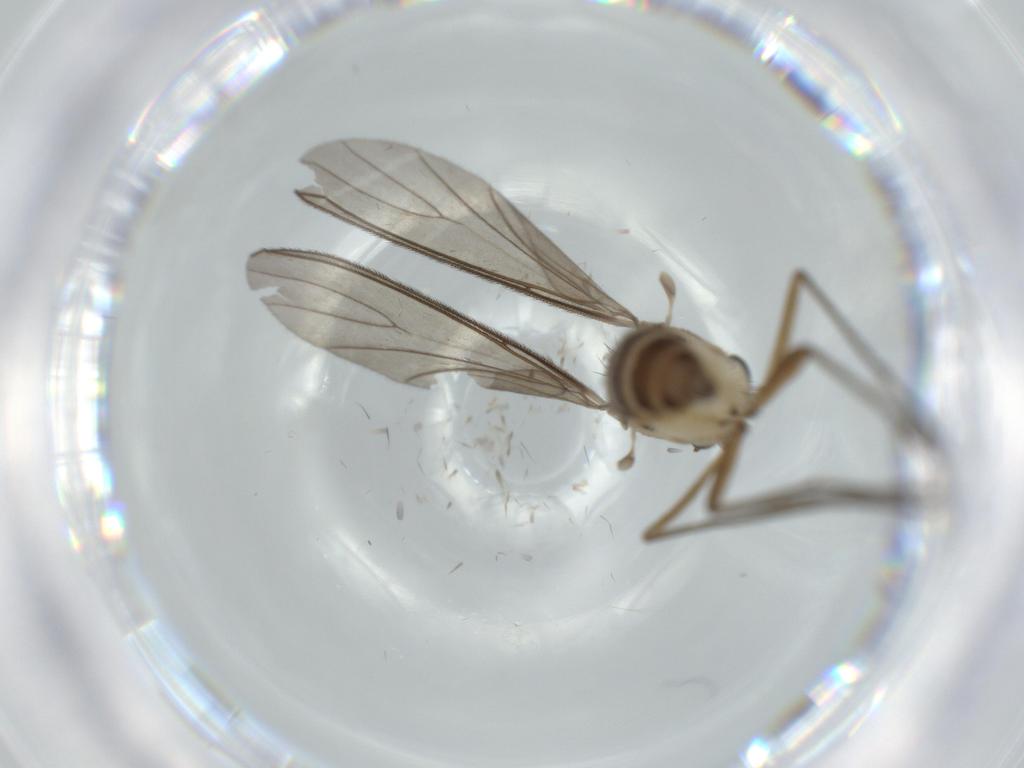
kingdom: Animalia
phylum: Arthropoda
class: Insecta
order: Diptera
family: Sciaridae
